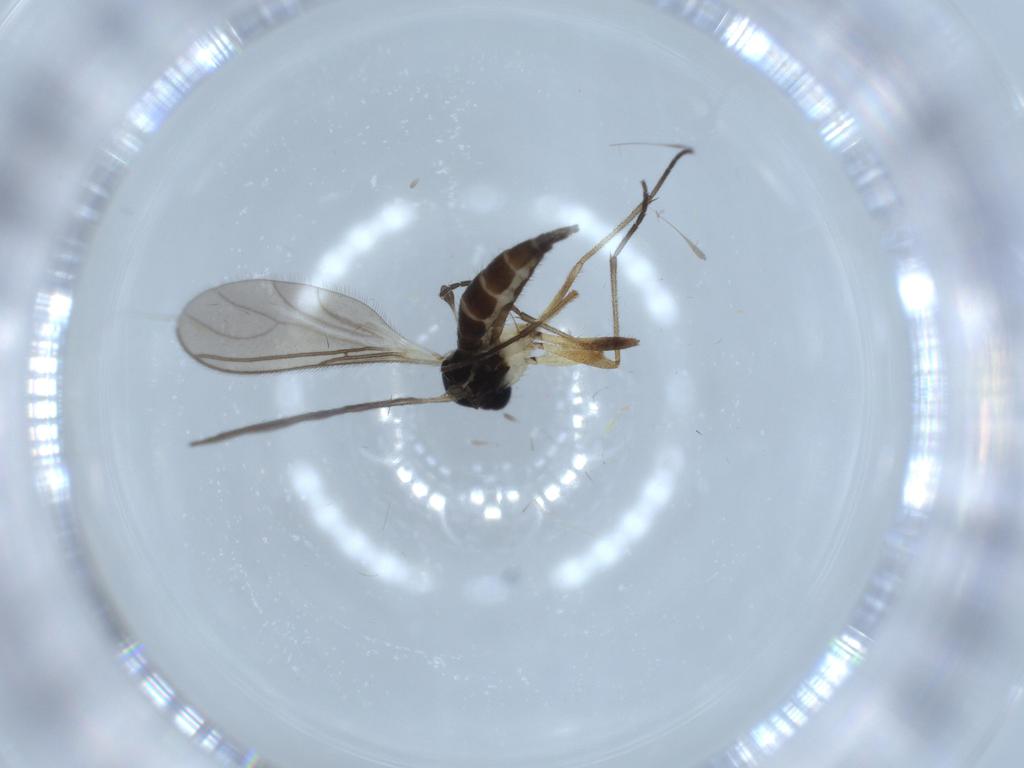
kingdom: Animalia
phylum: Arthropoda
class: Insecta
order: Diptera
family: Sciaridae
